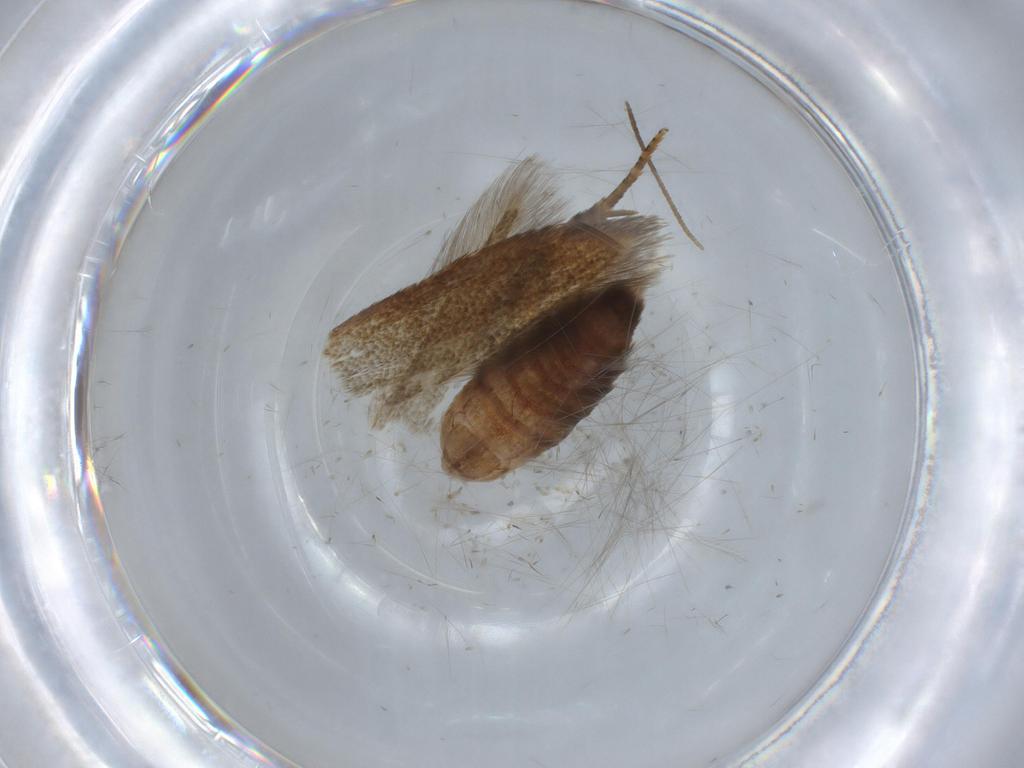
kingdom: Animalia
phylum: Arthropoda
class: Insecta
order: Lepidoptera
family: Blastobasidae
